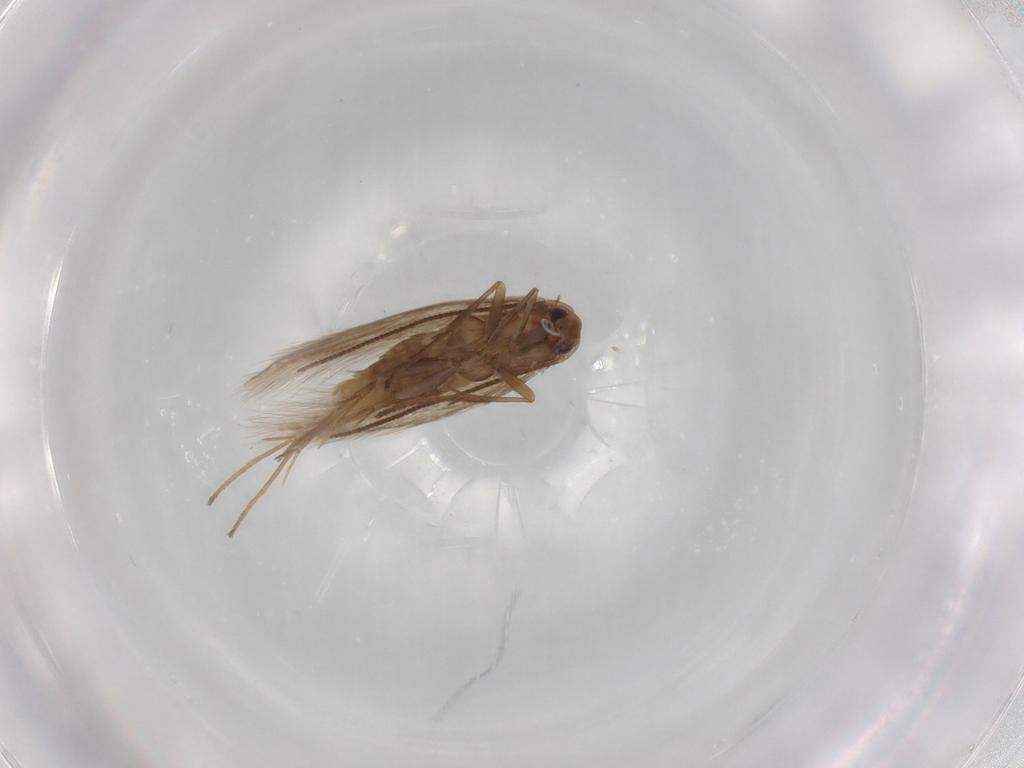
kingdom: Animalia
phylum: Arthropoda
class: Insecta
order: Lepidoptera
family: Bucculatricidae
